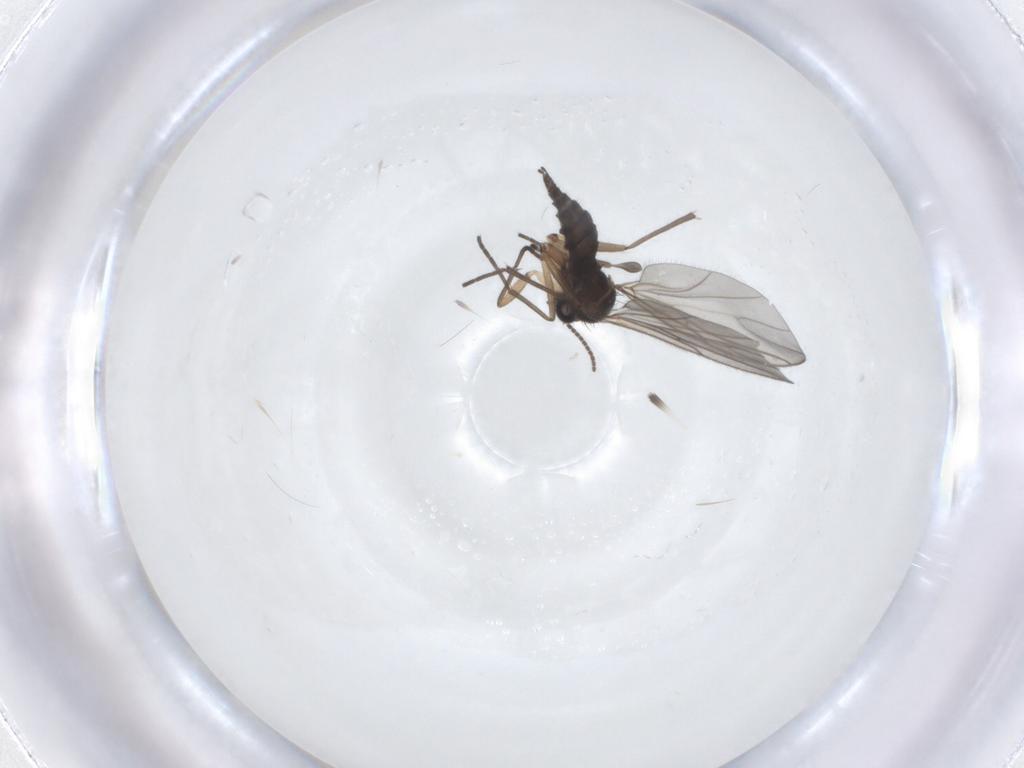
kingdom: Animalia
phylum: Arthropoda
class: Insecta
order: Diptera
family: Sciaridae
